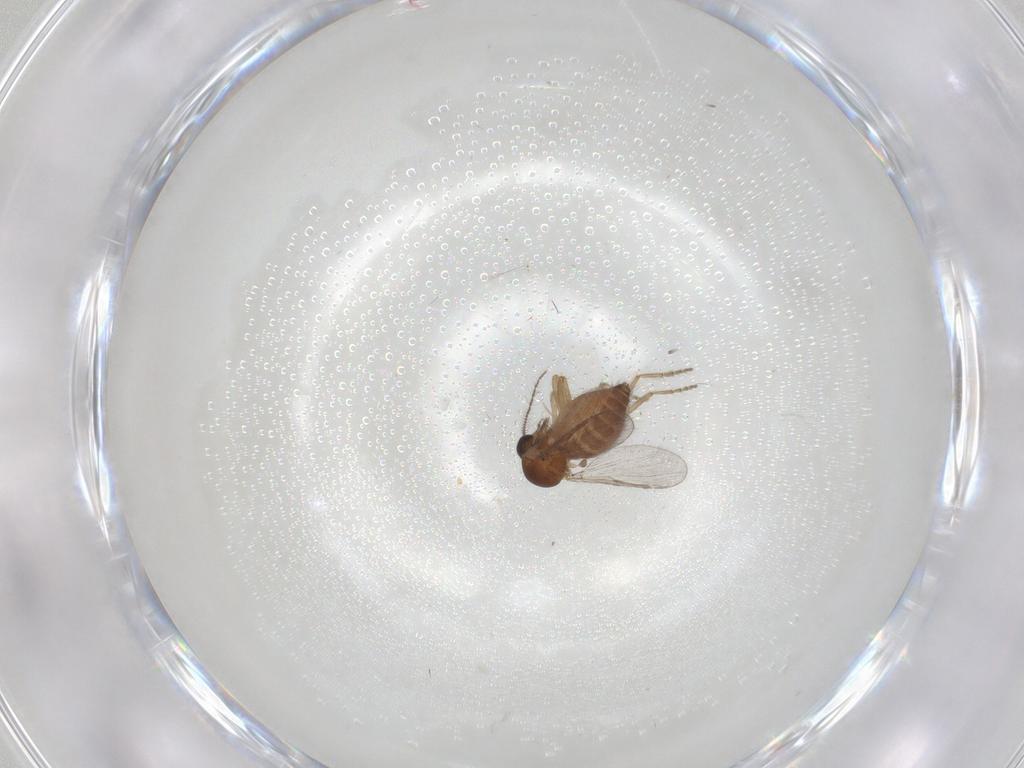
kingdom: Animalia
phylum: Arthropoda
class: Insecta
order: Diptera
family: Ceratopogonidae
